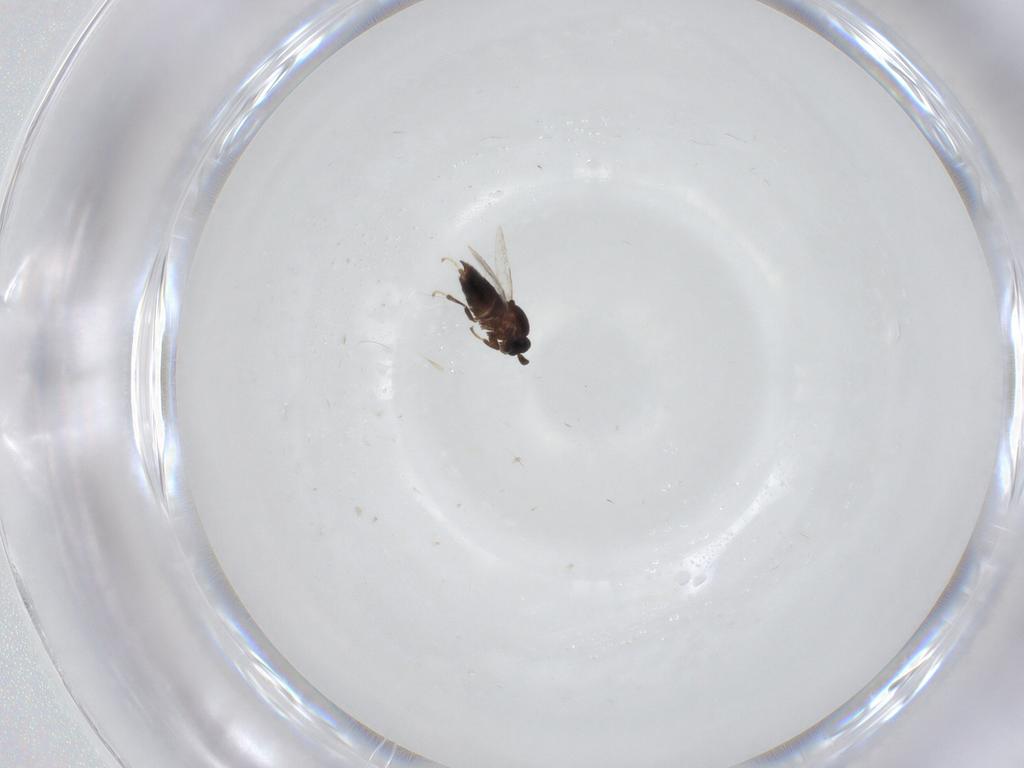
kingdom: Animalia
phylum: Arthropoda
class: Insecta
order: Diptera
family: Scatopsidae
